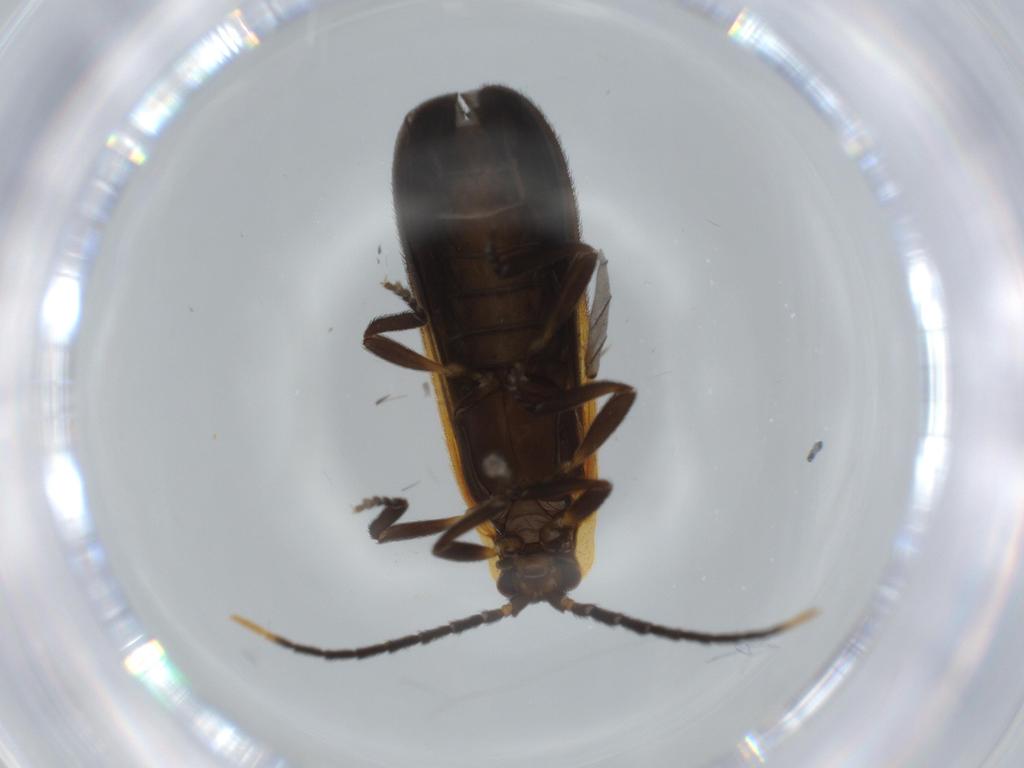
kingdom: Animalia
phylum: Arthropoda
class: Insecta
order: Coleoptera
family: Lycidae
